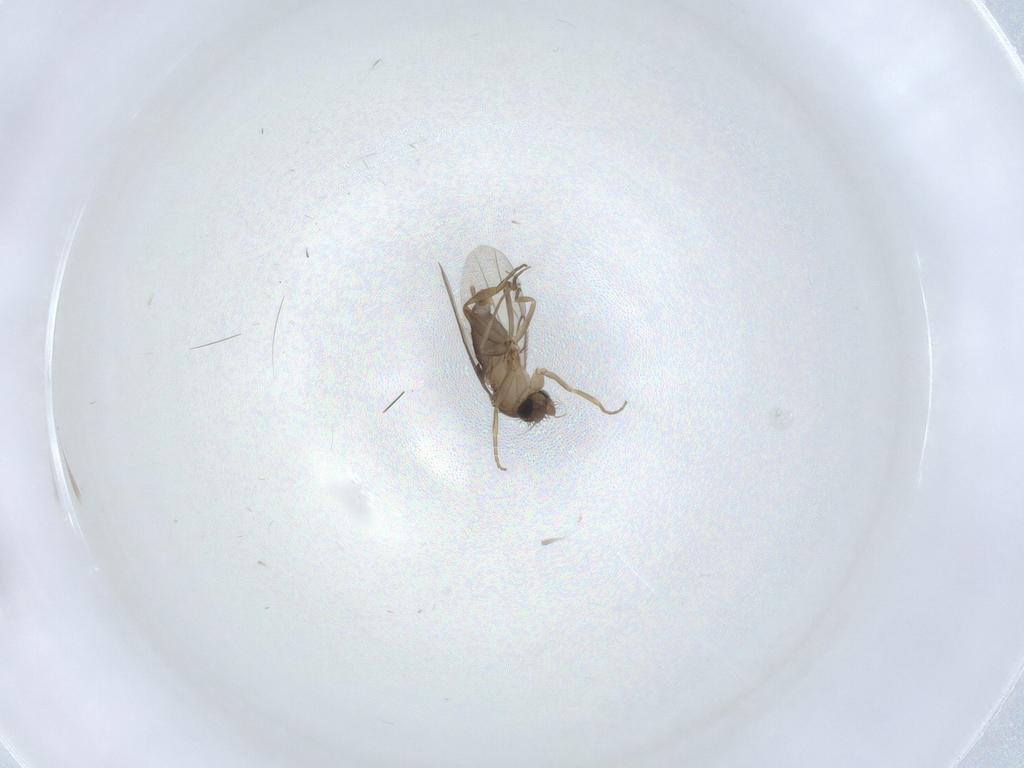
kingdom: Animalia
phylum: Arthropoda
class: Insecta
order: Diptera
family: Phoridae
